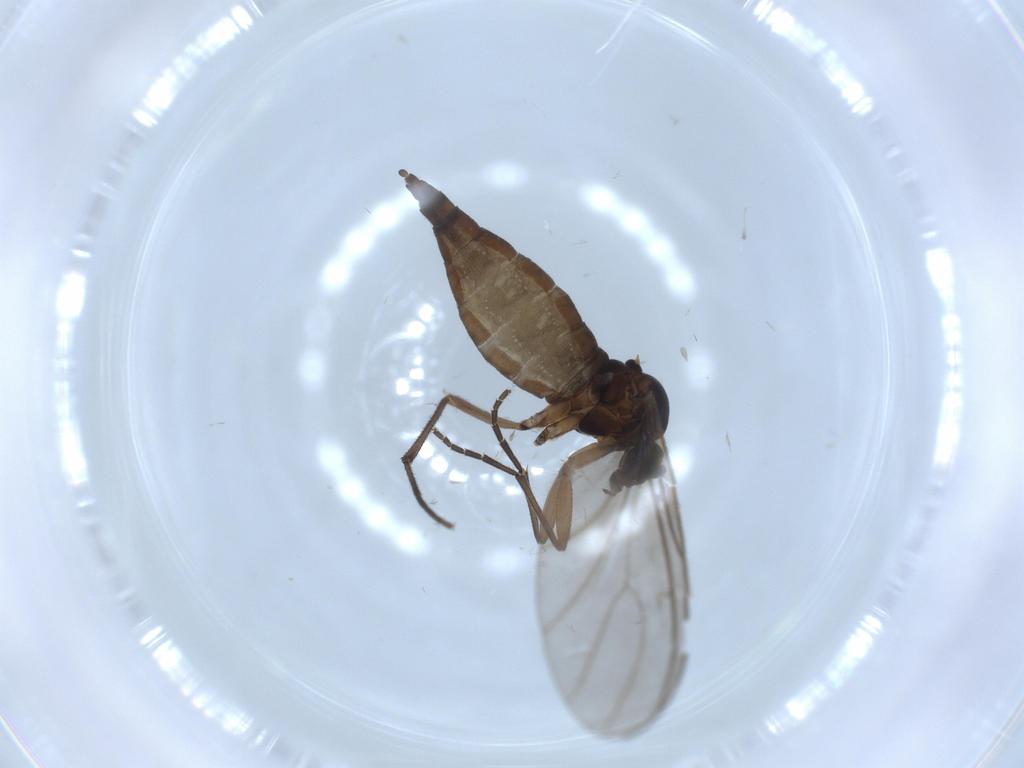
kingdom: Animalia
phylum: Arthropoda
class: Insecta
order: Diptera
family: Sciaridae
